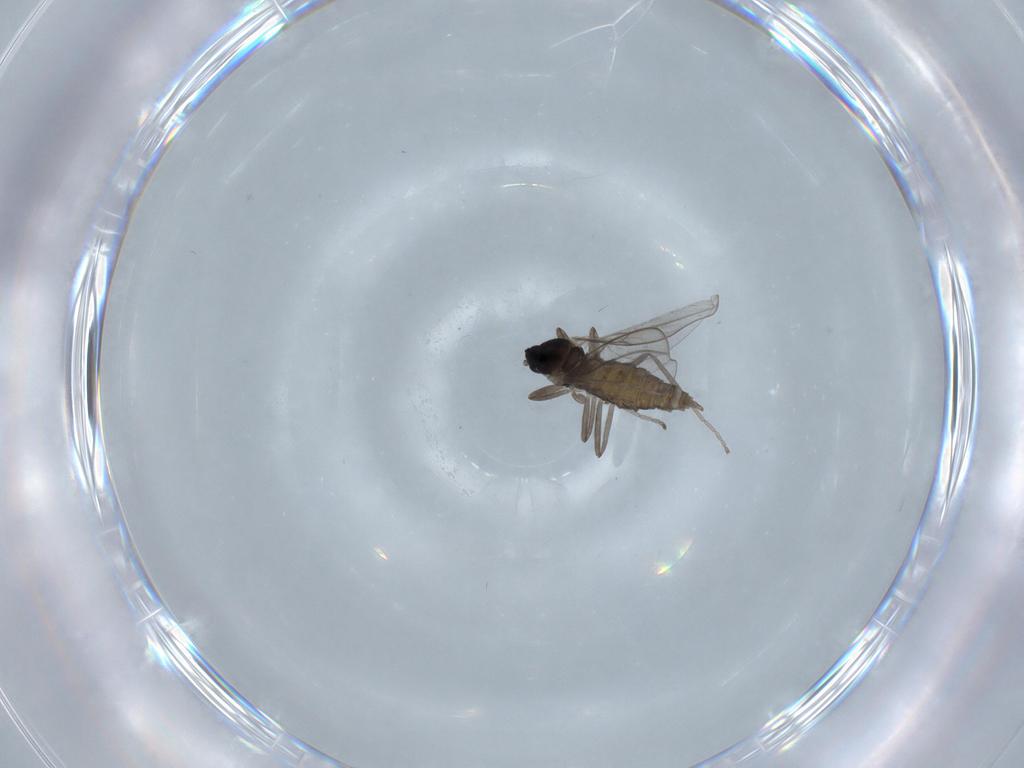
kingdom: Animalia
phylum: Arthropoda
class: Insecta
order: Diptera
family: Cecidomyiidae
